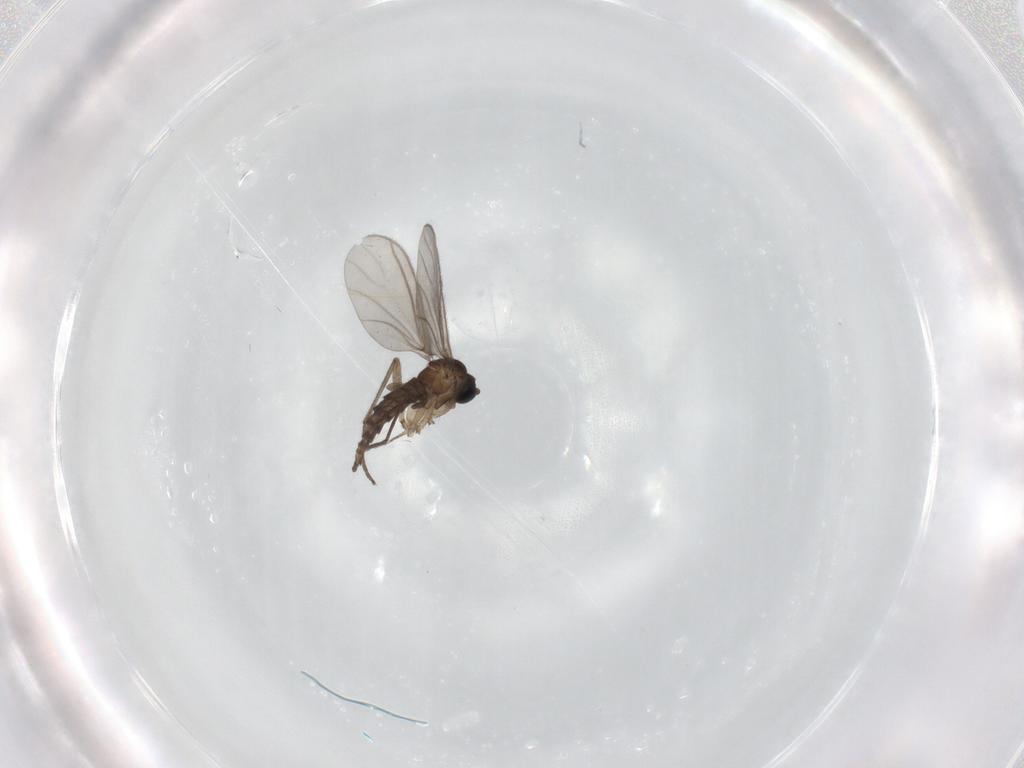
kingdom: Animalia
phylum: Arthropoda
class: Insecta
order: Diptera
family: Sciaridae
